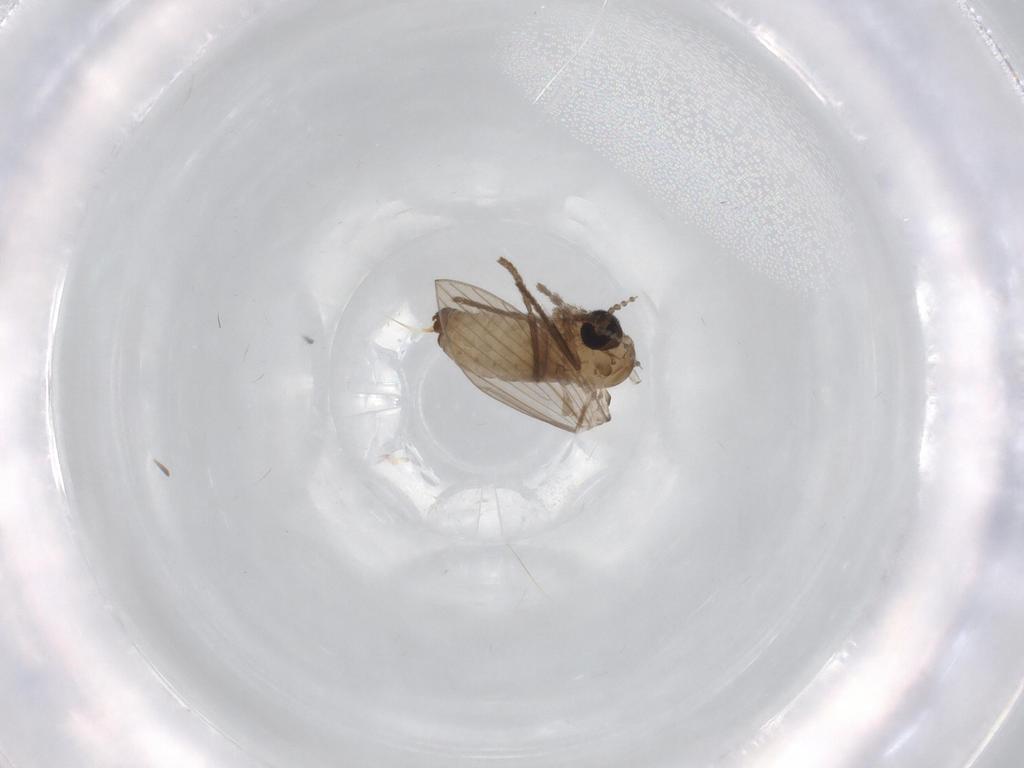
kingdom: Animalia
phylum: Arthropoda
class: Insecta
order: Diptera
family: Psychodidae
